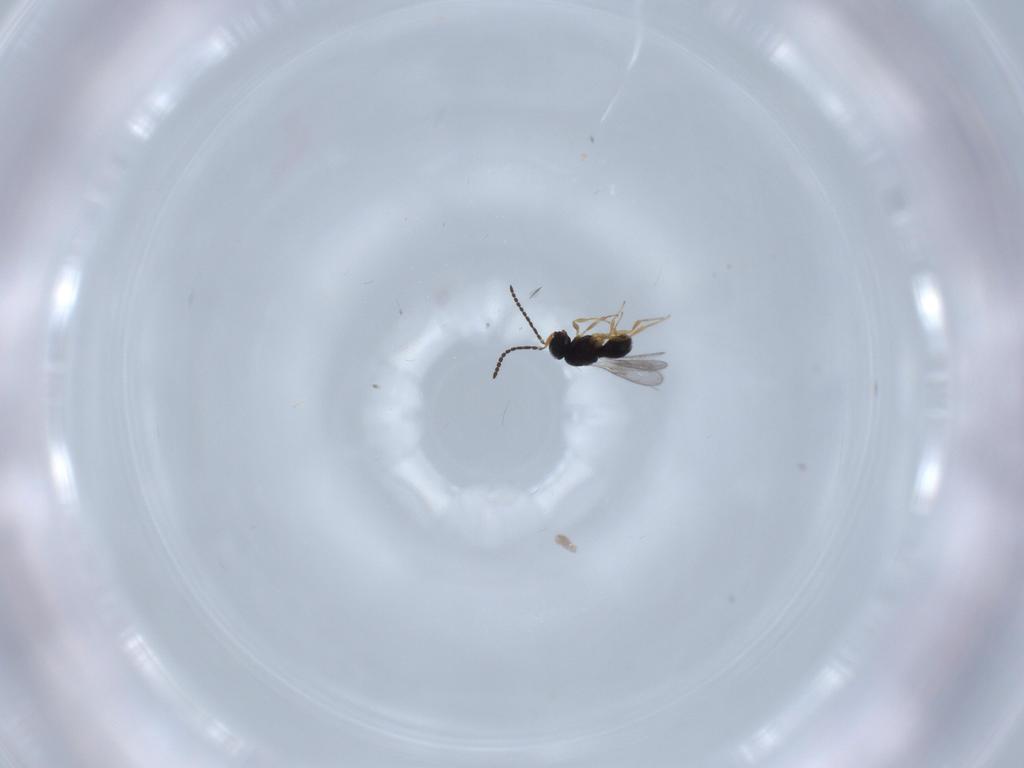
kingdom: Animalia
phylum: Arthropoda
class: Insecta
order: Hymenoptera
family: Scelionidae
